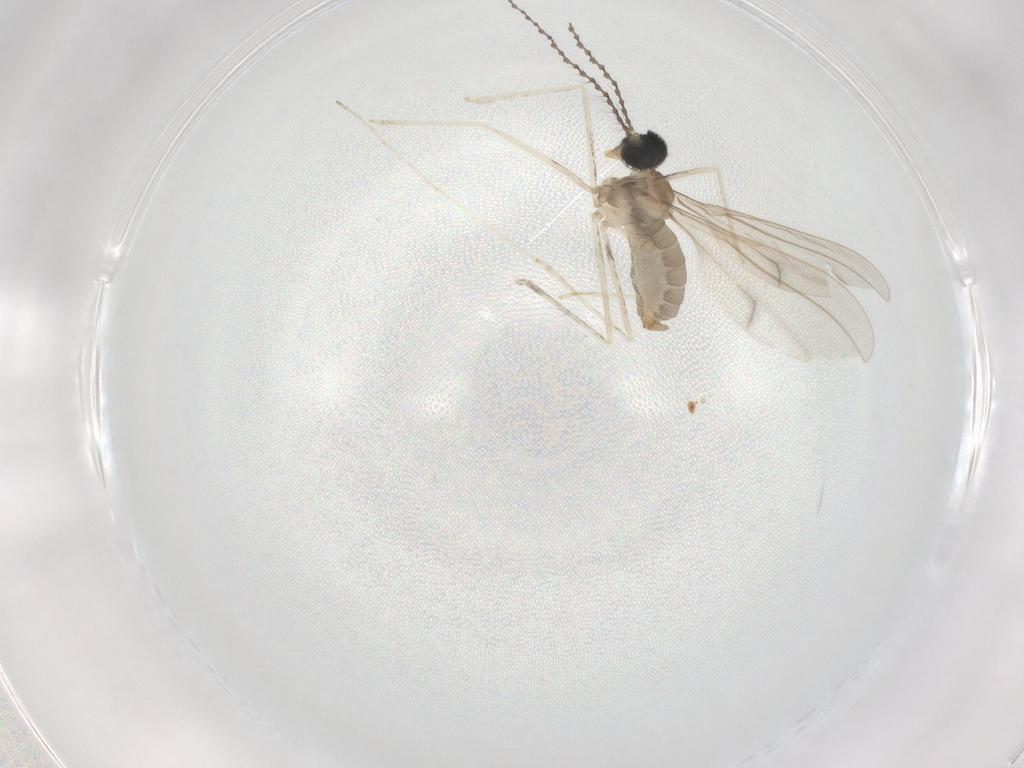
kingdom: Animalia
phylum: Arthropoda
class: Insecta
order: Diptera
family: Cecidomyiidae
